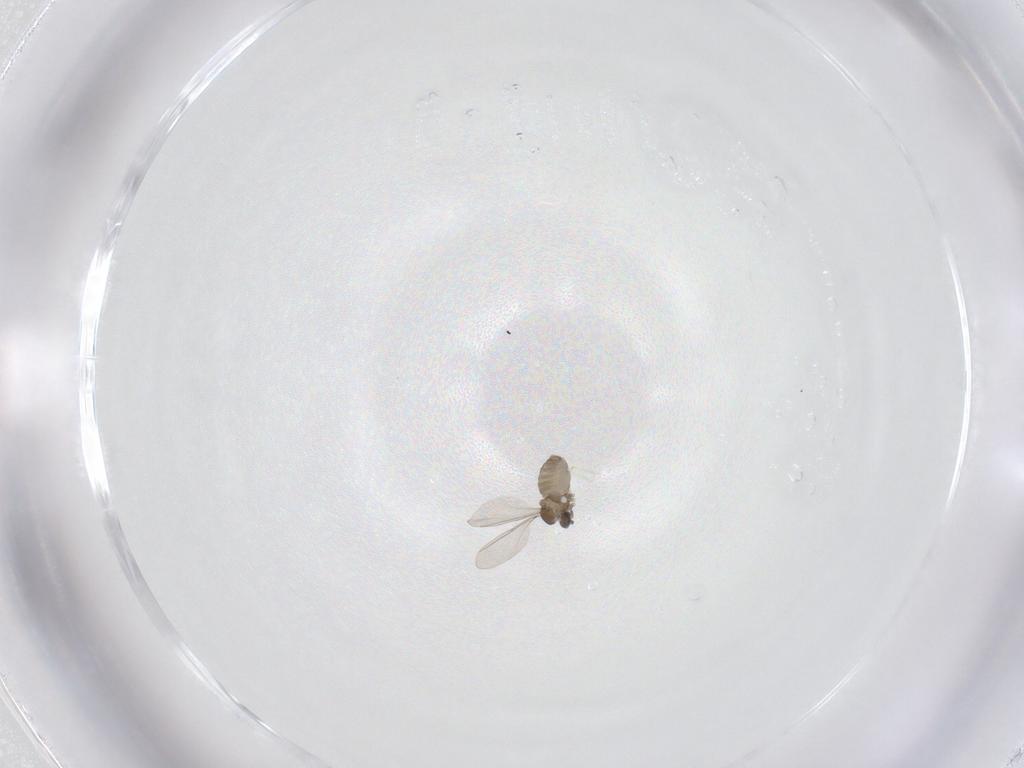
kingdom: Animalia
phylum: Arthropoda
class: Insecta
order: Diptera
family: Cecidomyiidae
